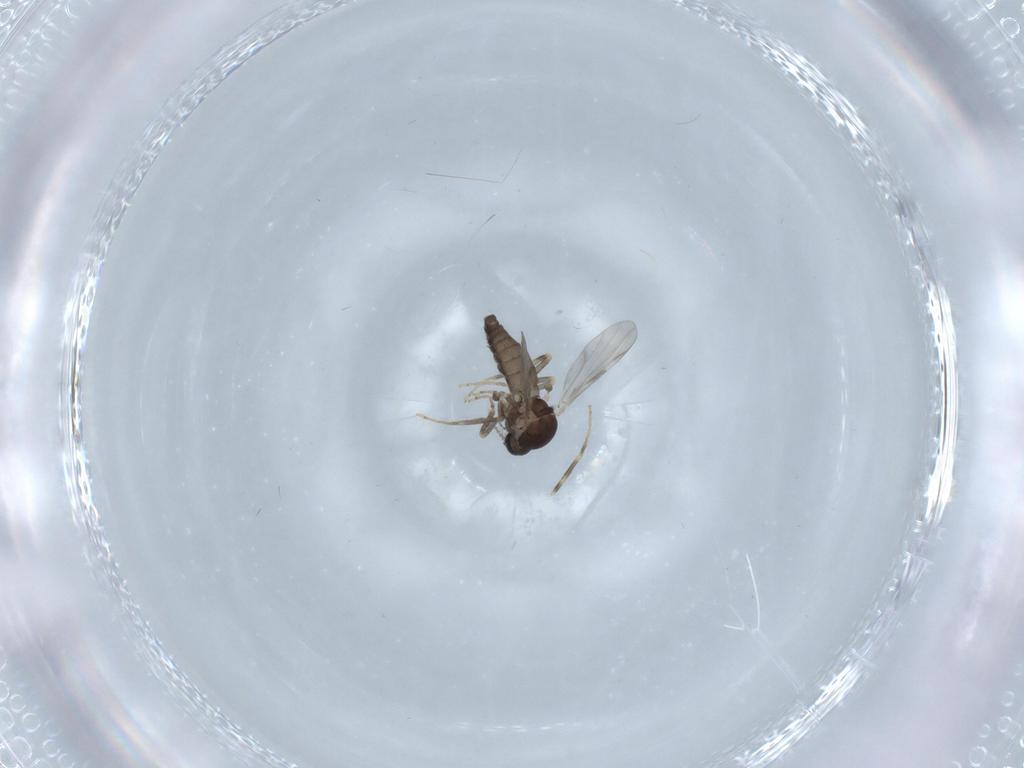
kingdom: Animalia
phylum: Arthropoda
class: Insecta
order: Diptera
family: Ceratopogonidae
